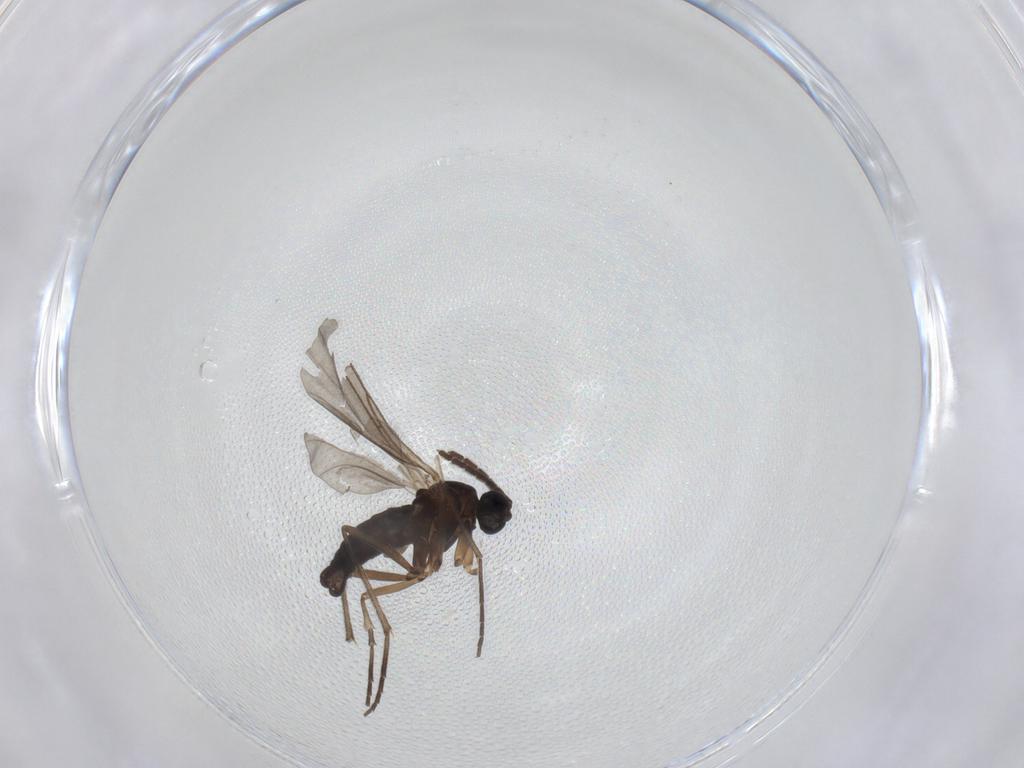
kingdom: Animalia
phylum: Arthropoda
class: Insecta
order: Diptera
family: Sciaridae
